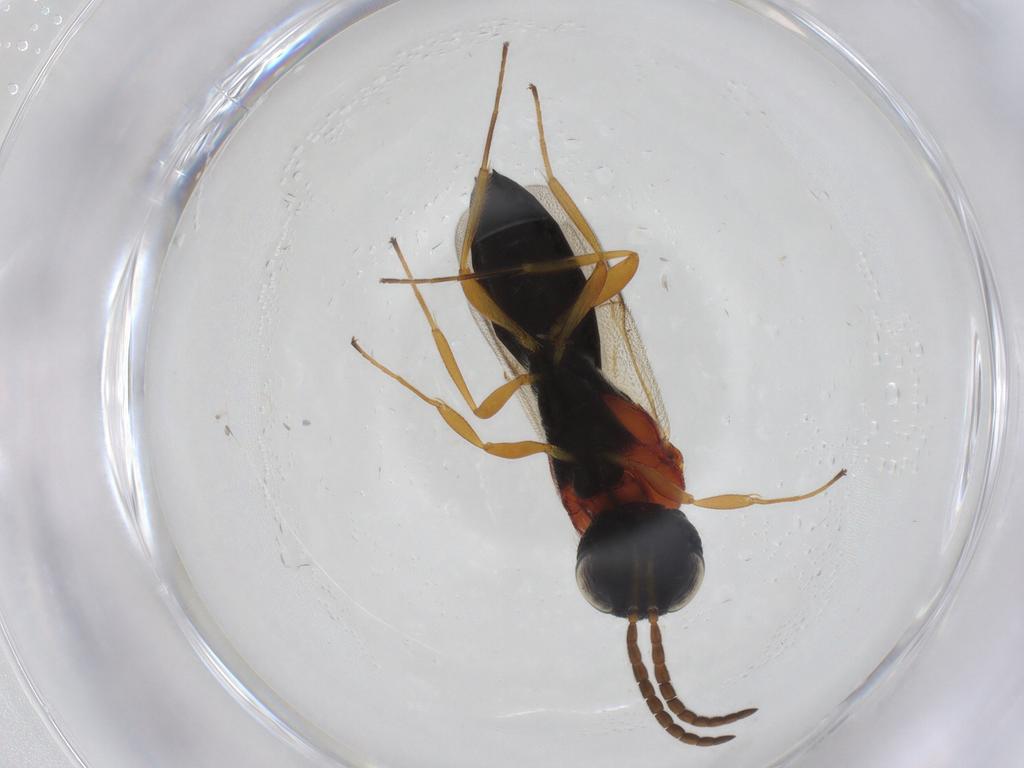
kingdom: Animalia
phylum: Arthropoda
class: Insecta
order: Hymenoptera
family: Scelionidae
